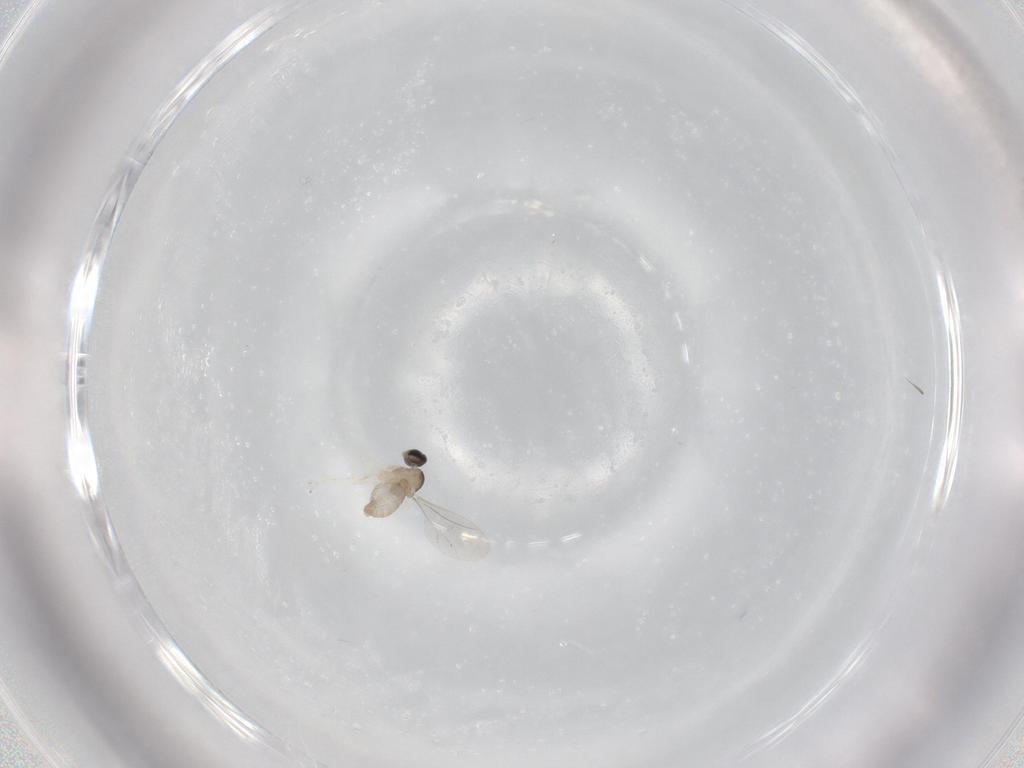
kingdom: Animalia
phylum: Arthropoda
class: Insecta
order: Diptera
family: Cecidomyiidae
